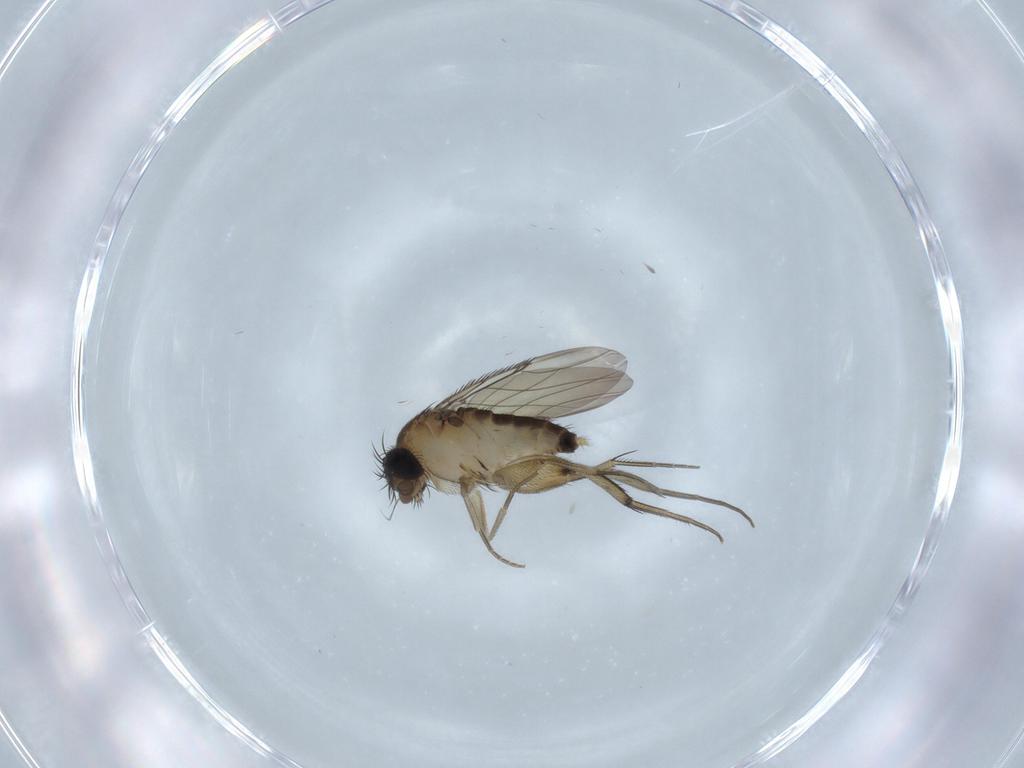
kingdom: Animalia
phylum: Arthropoda
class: Insecta
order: Diptera
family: Phoridae
